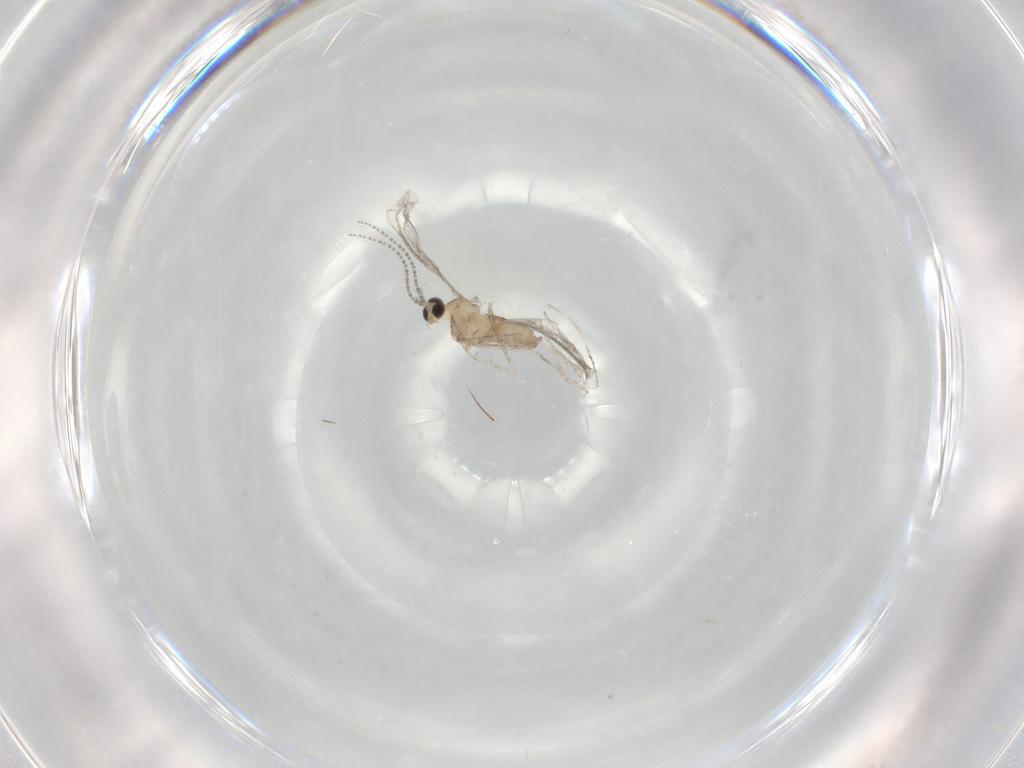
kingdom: Animalia
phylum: Arthropoda
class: Insecta
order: Diptera
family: Cecidomyiidae
